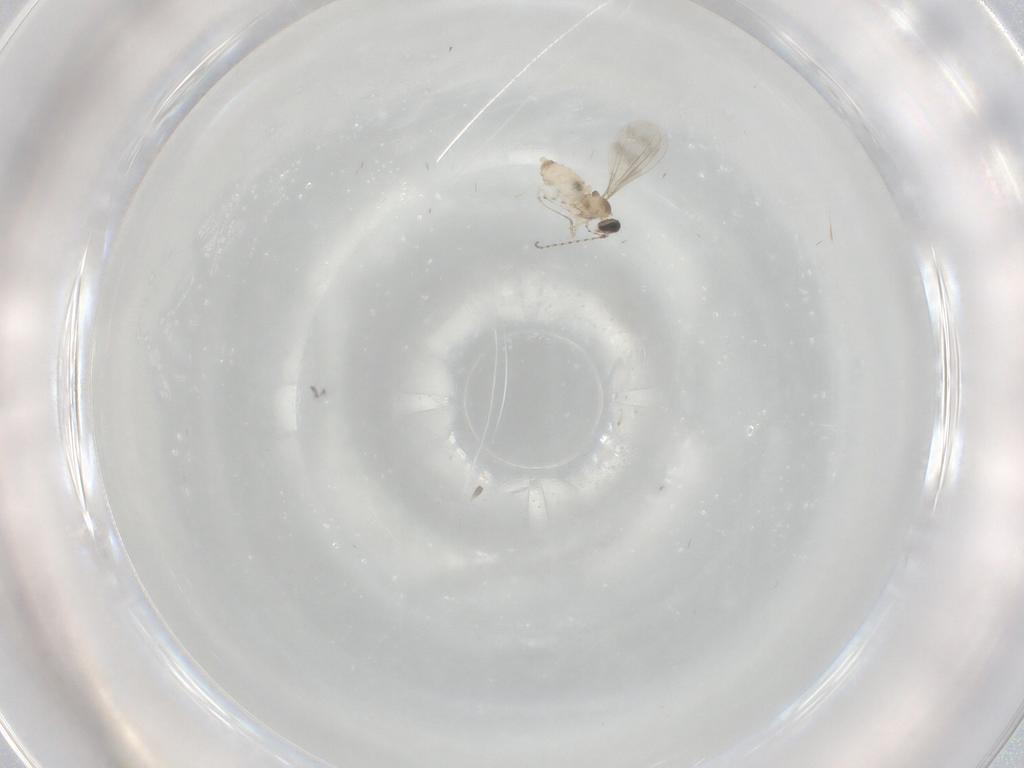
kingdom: Animalia
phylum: Arthropoda
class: Insecta
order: Diptera
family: Cecidomyiidae
